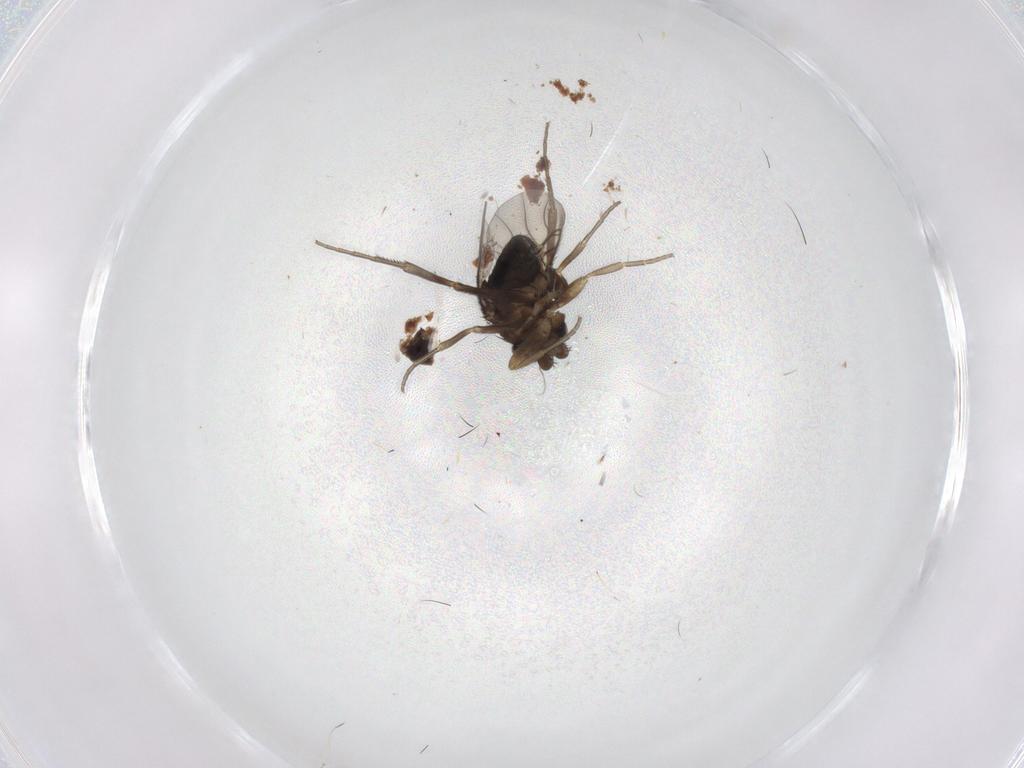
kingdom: Animalia
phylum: Arthropoda
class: Insecta
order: Diptera
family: Phoridae
